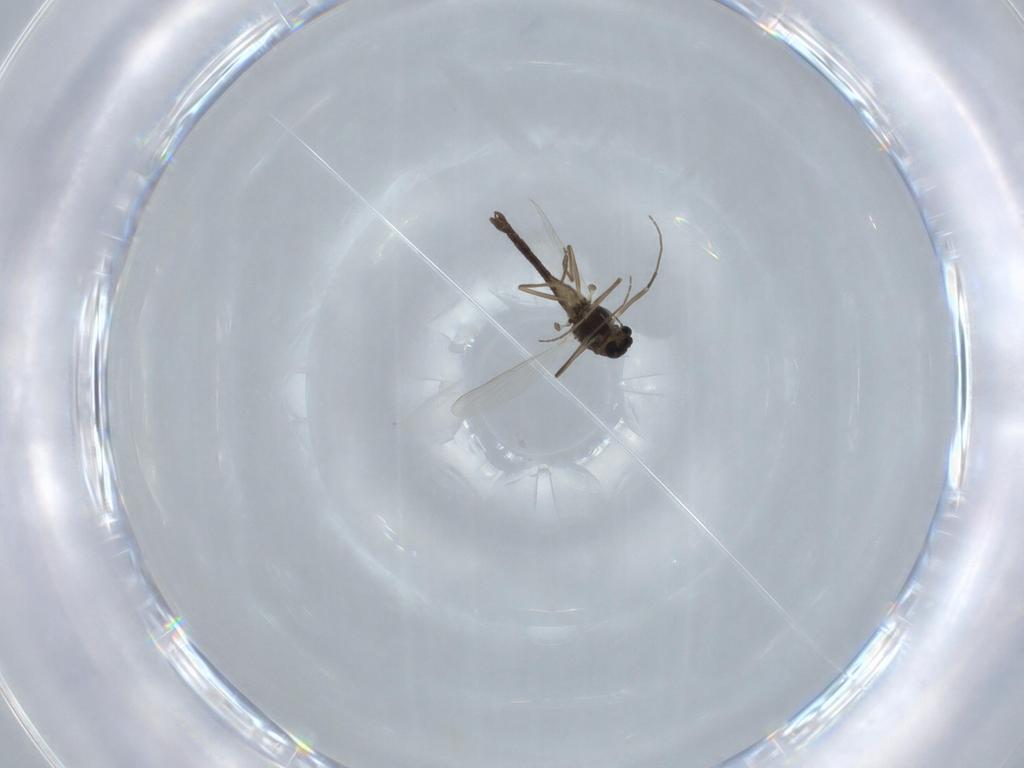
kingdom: Animalia
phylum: Arthropoda
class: Insecta
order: Diptera
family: Chironomidae
